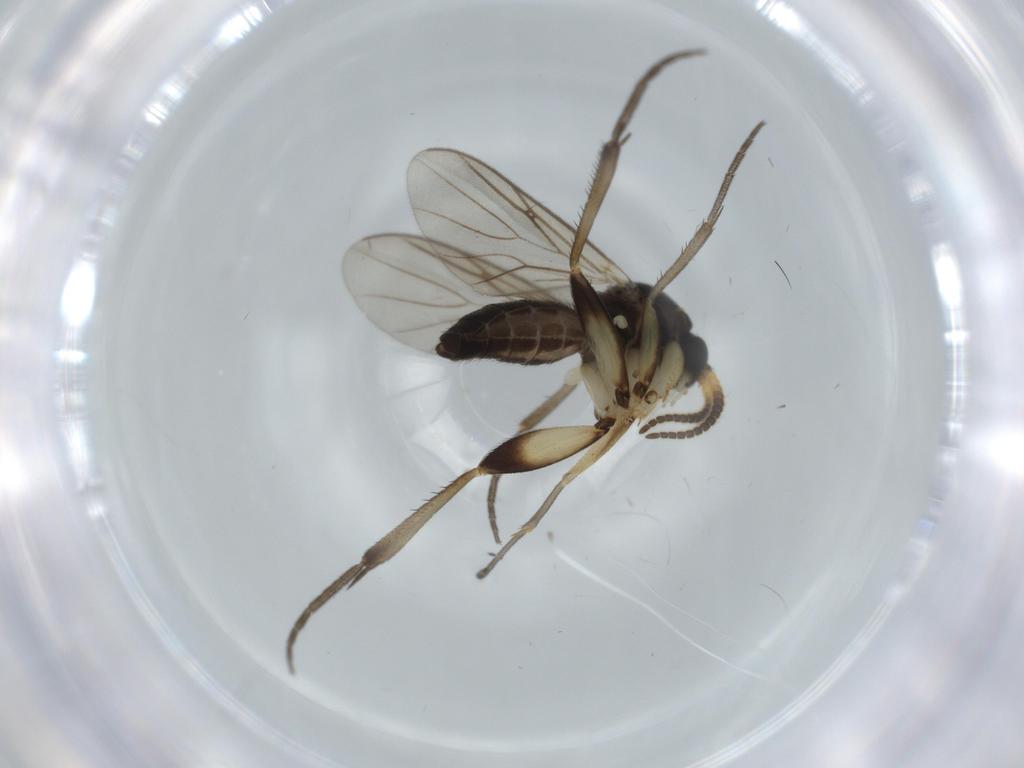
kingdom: Animalia
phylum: Arthropoda
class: Insecta
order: Diptera
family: Mycetophilidae
